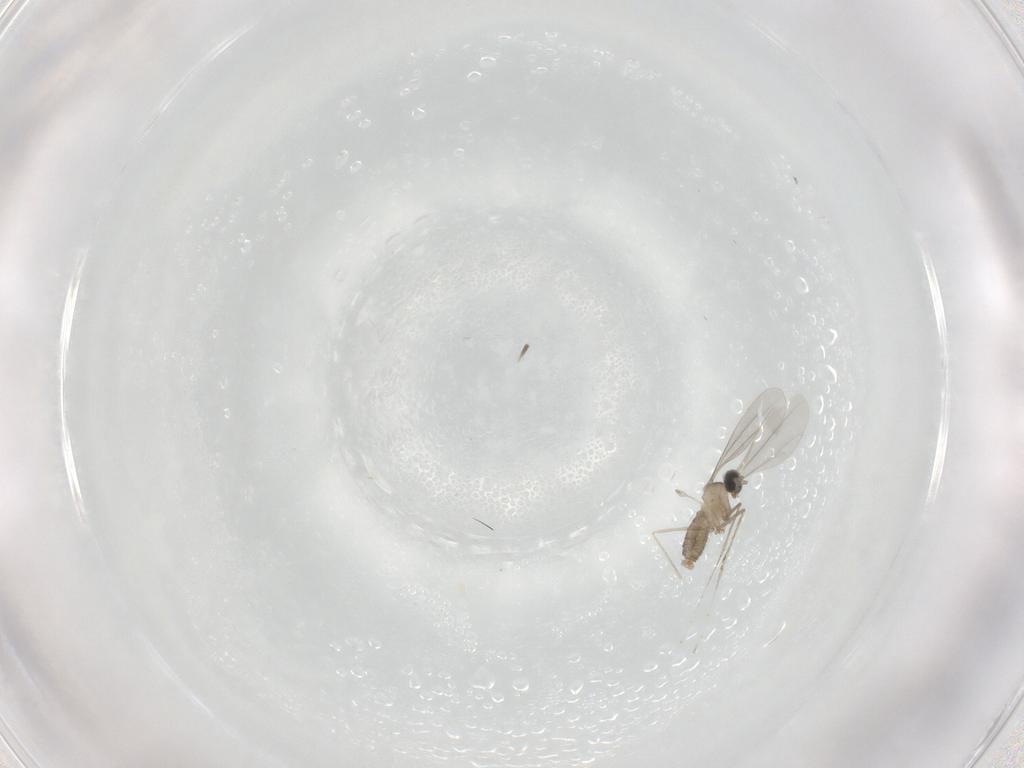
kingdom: Animalia
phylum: Arthropoda
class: Insecta
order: Diptera
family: Cecidomyiidae
